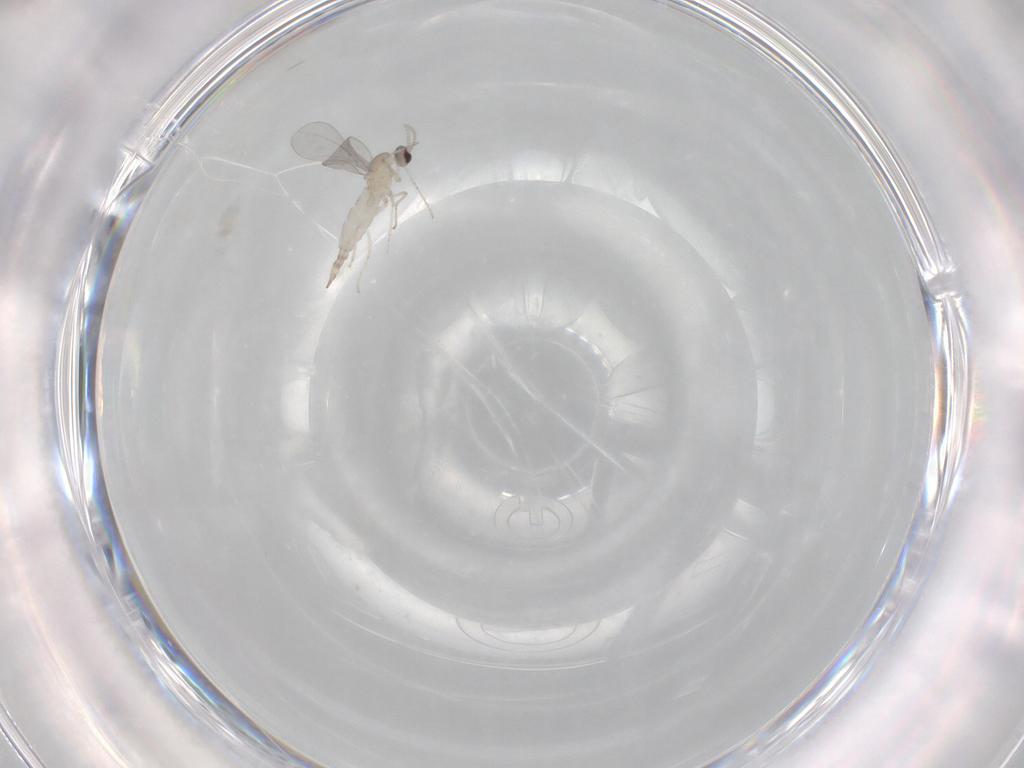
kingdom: Animalia
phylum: Arthropoda
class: Insecta
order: Diptera
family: Cecidomyiidae
